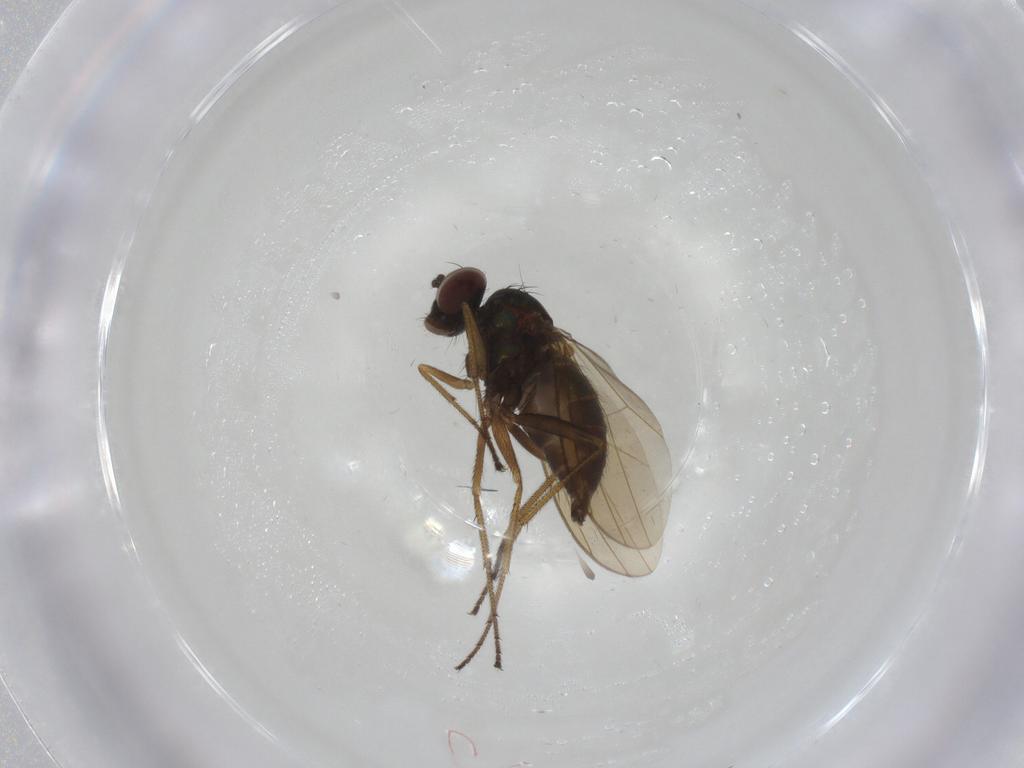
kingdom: Animalia
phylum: Arthropoda
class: Insecta
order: Diptera
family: Dolichopodidae
